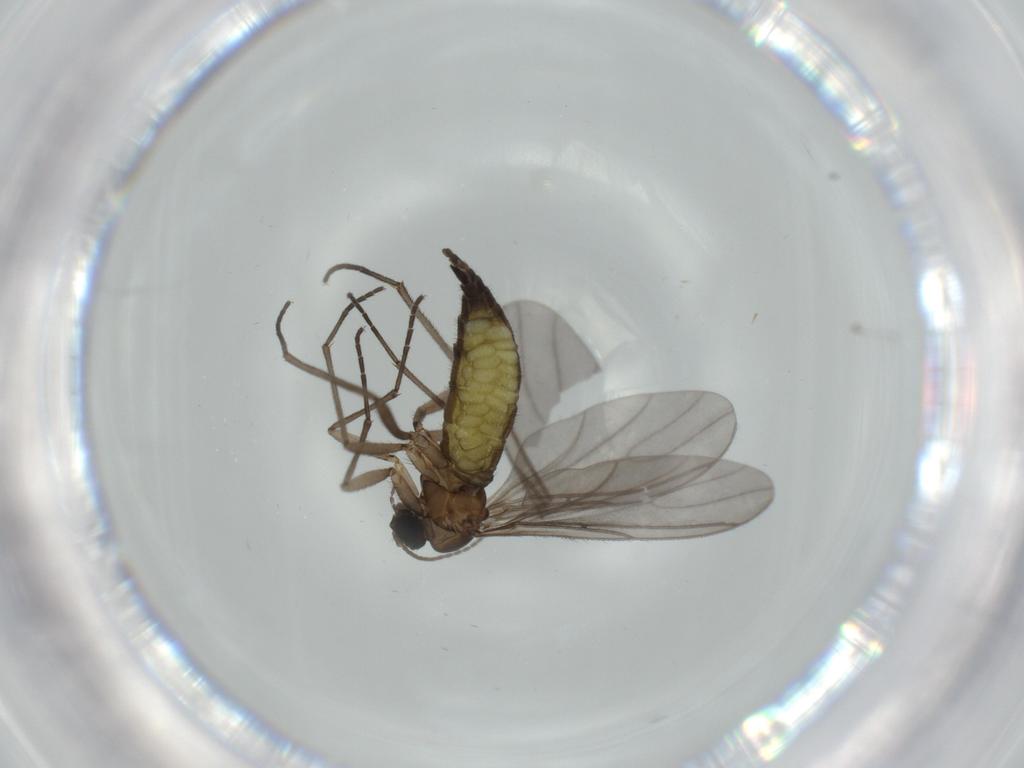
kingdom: Animalia
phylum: Arthropoda
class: Insecta
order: Diptera
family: Sciaridae
